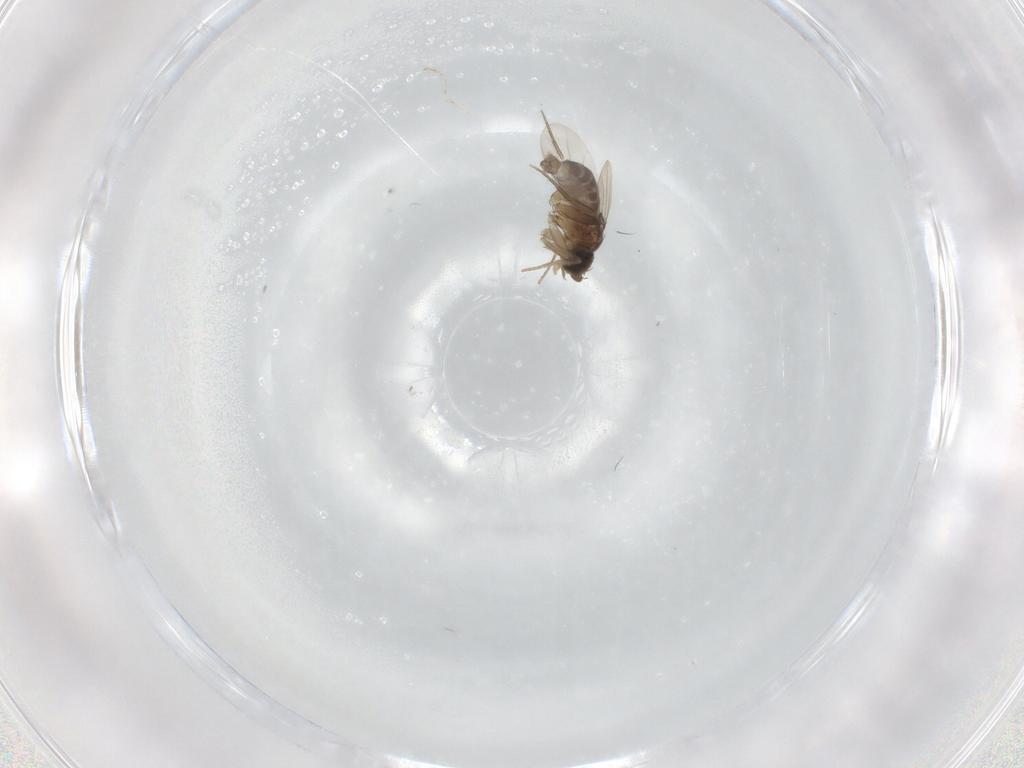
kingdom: Animalia
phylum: Arthropoda
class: Insecta
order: Diptera
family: Phoridae
